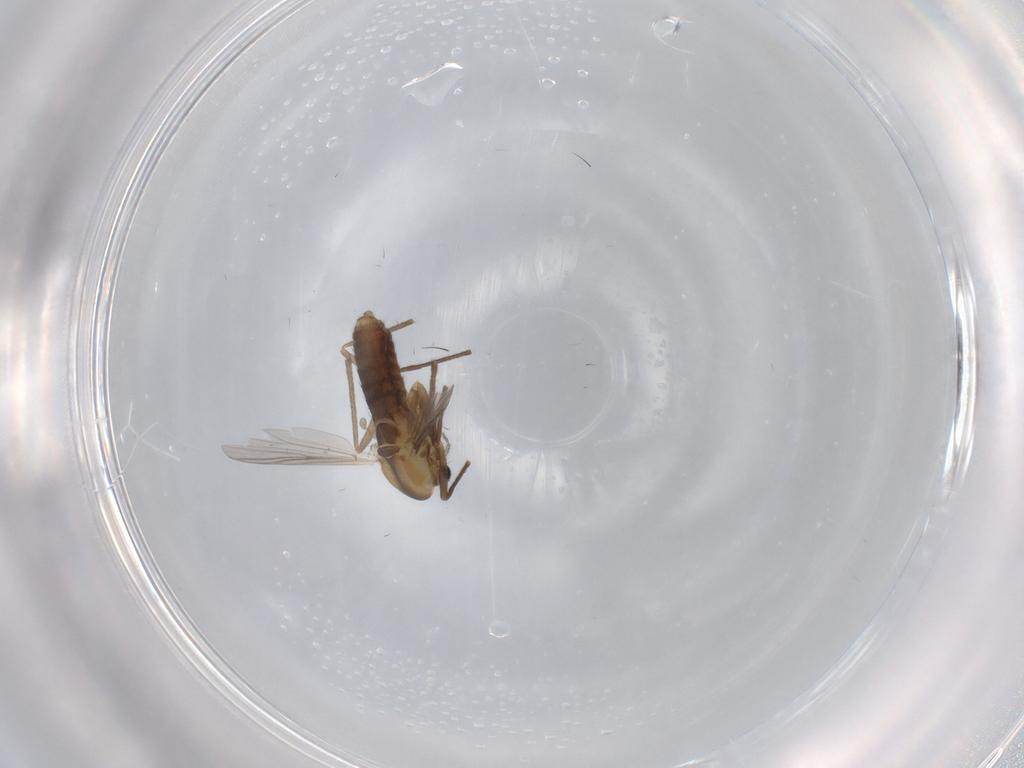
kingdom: Animalia
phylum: Arthropoda
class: Insecta
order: Diptera
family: Chironomidae
